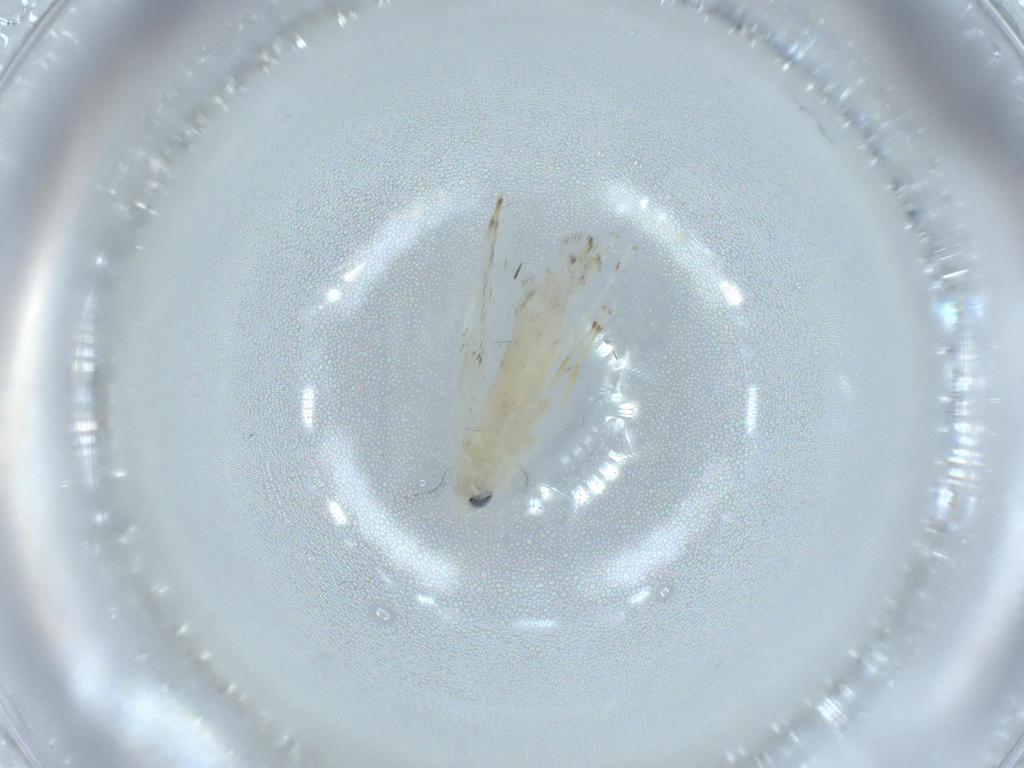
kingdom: Animalia
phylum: Arthropoda
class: Insecta
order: Lepidoptera
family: Gracillariidae
